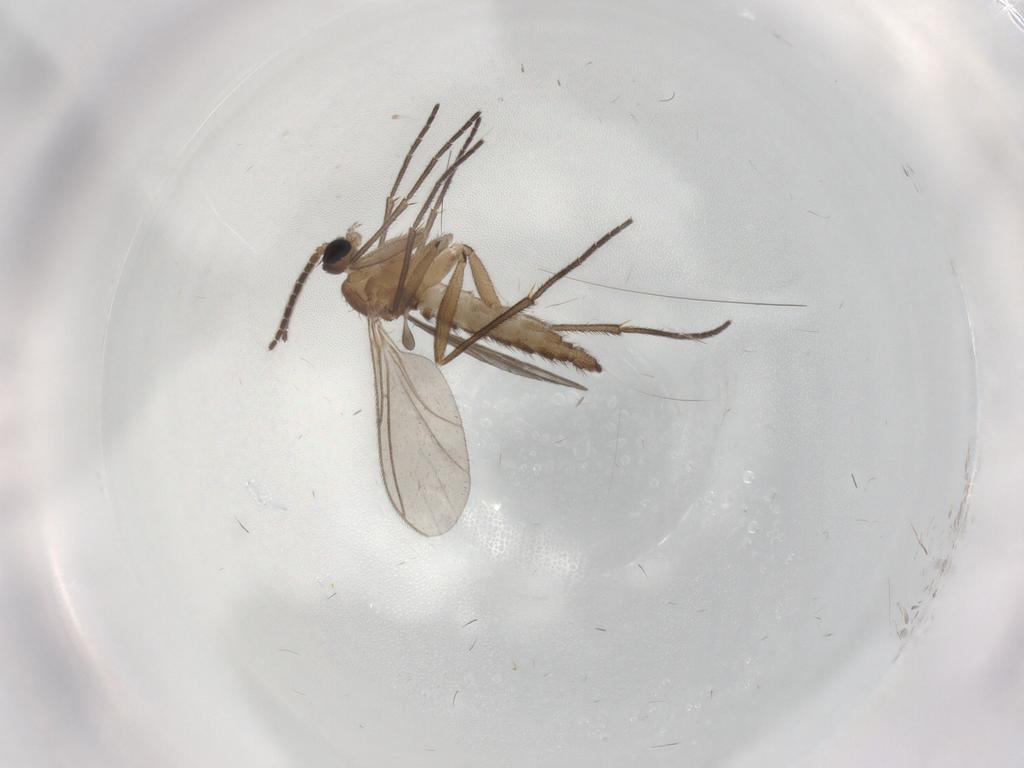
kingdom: Animalia
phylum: Arthropoda
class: Insecta
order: Diptera
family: Sciaridae
